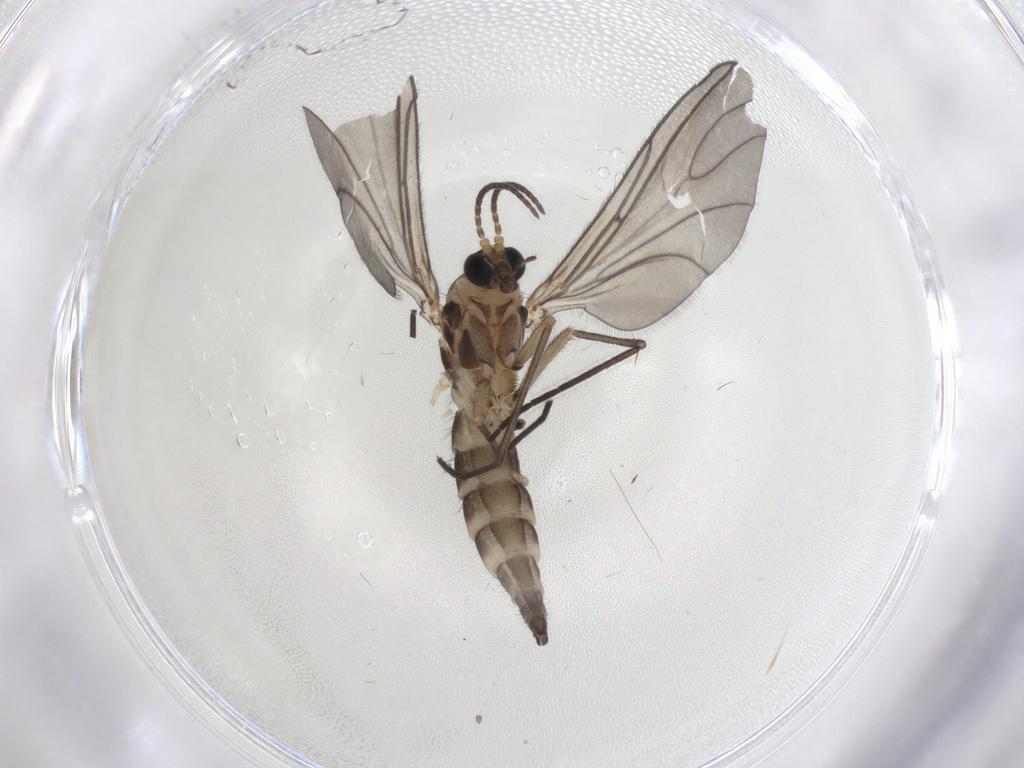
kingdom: Animalia
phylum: Arthropoda
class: Insecta
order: Diptera
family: Sciaridae
